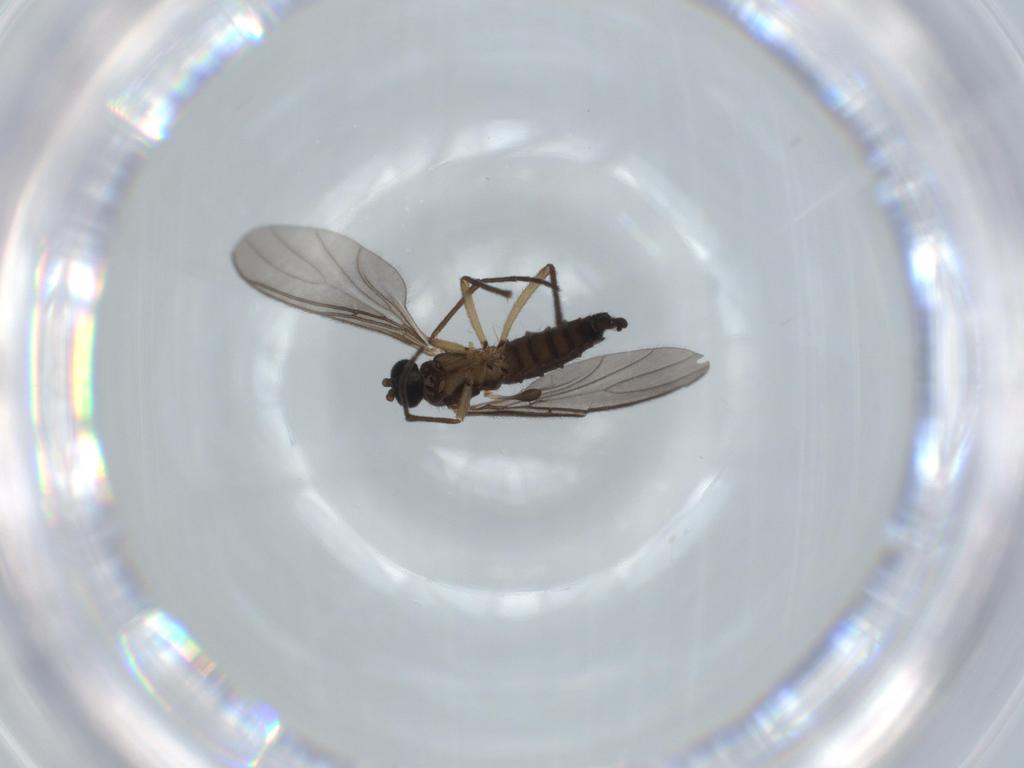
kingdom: Animalia
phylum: Arthropoda
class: Insecta
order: Diptera
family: Sciaridae
